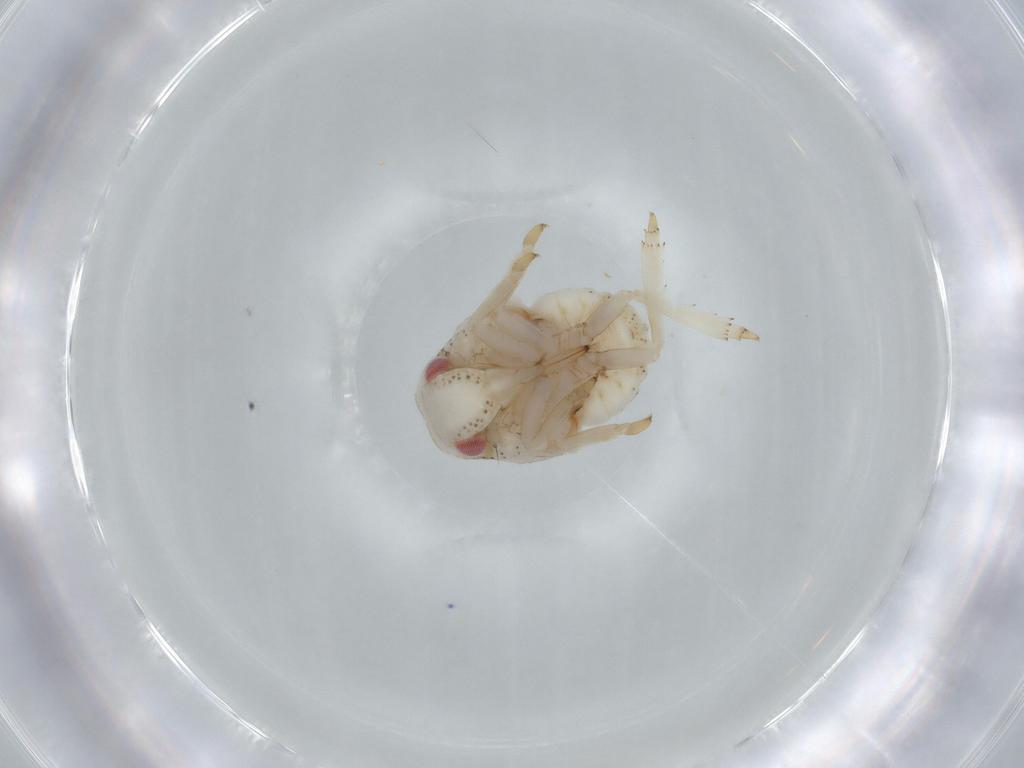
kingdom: Animalia
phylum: Arthropoda
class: Insecta
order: Hemiptera
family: Acanaloniidae
